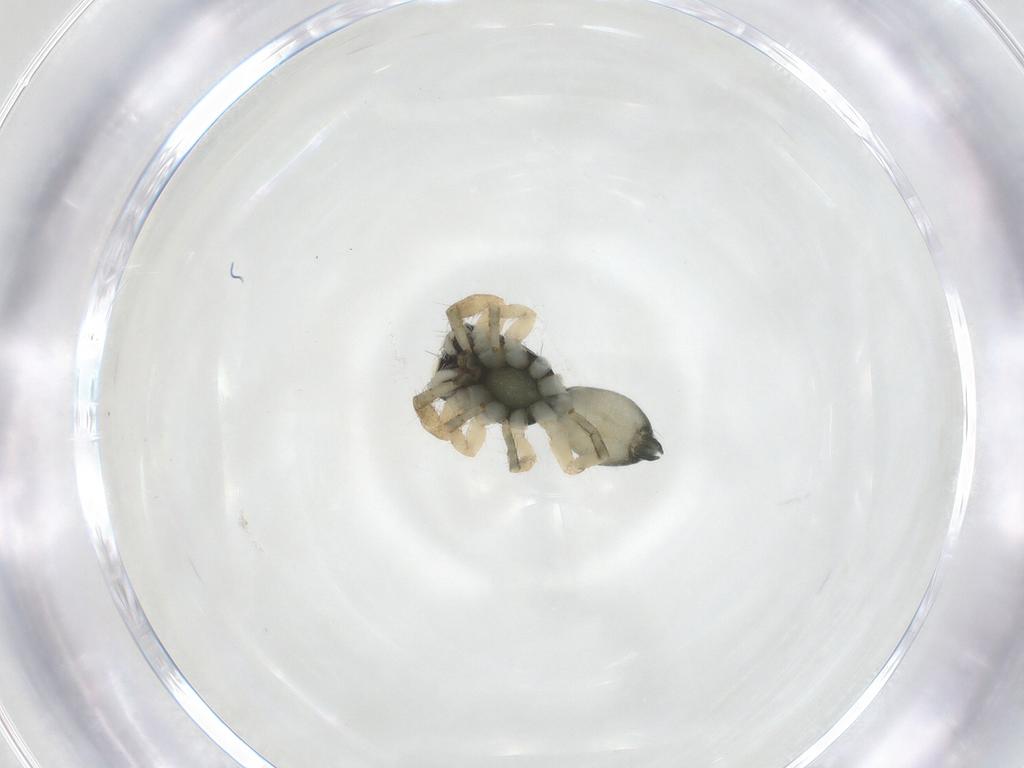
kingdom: Animalia
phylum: Arthropoda
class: Arachnida
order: Araneae
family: Salticidae
